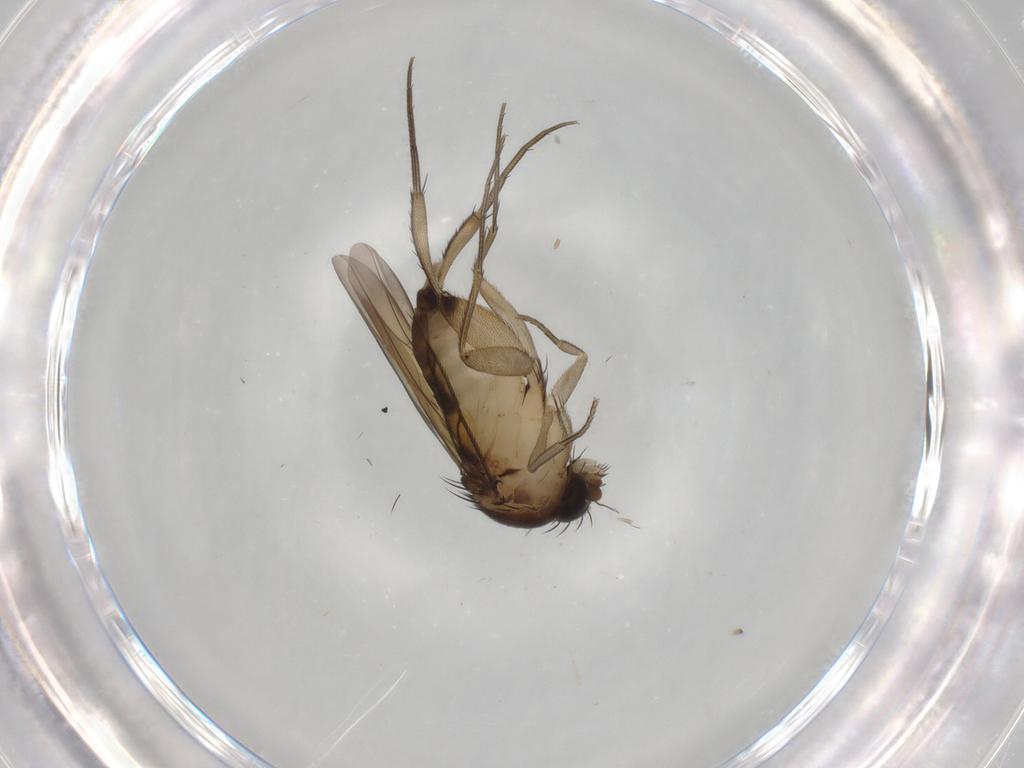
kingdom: Animalia
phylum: Arthropoda
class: Insecta
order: Diptera
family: Phoridae
